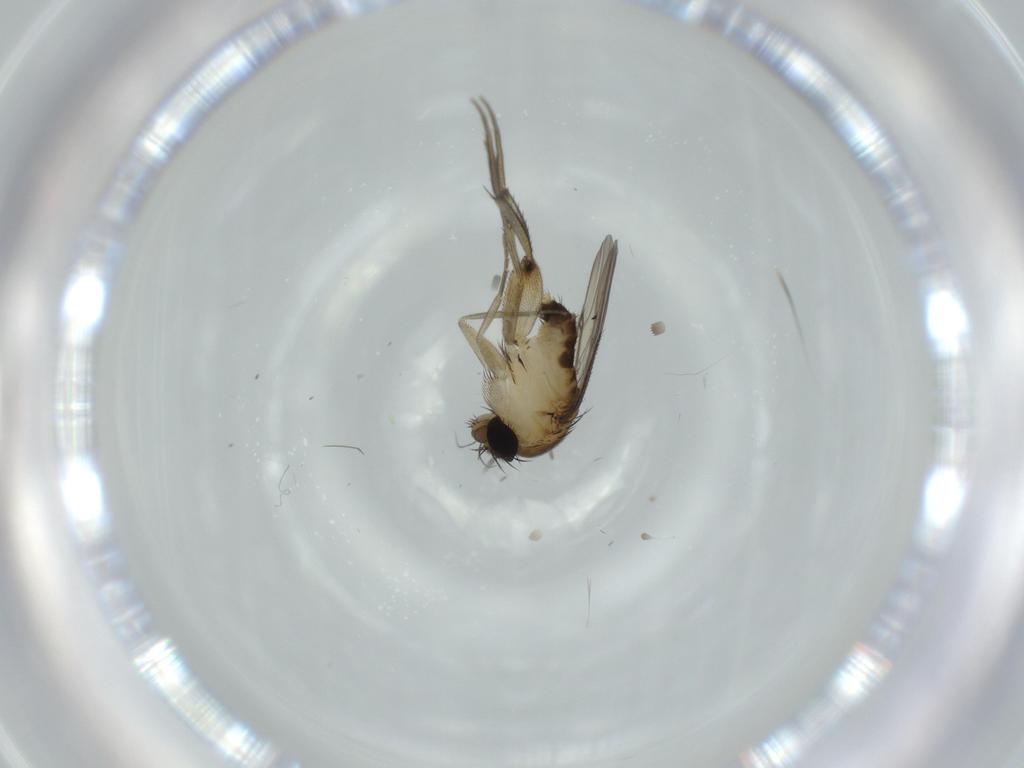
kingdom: Animalia
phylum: Arthropoda
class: Insecta
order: Diptera
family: Phoridae
